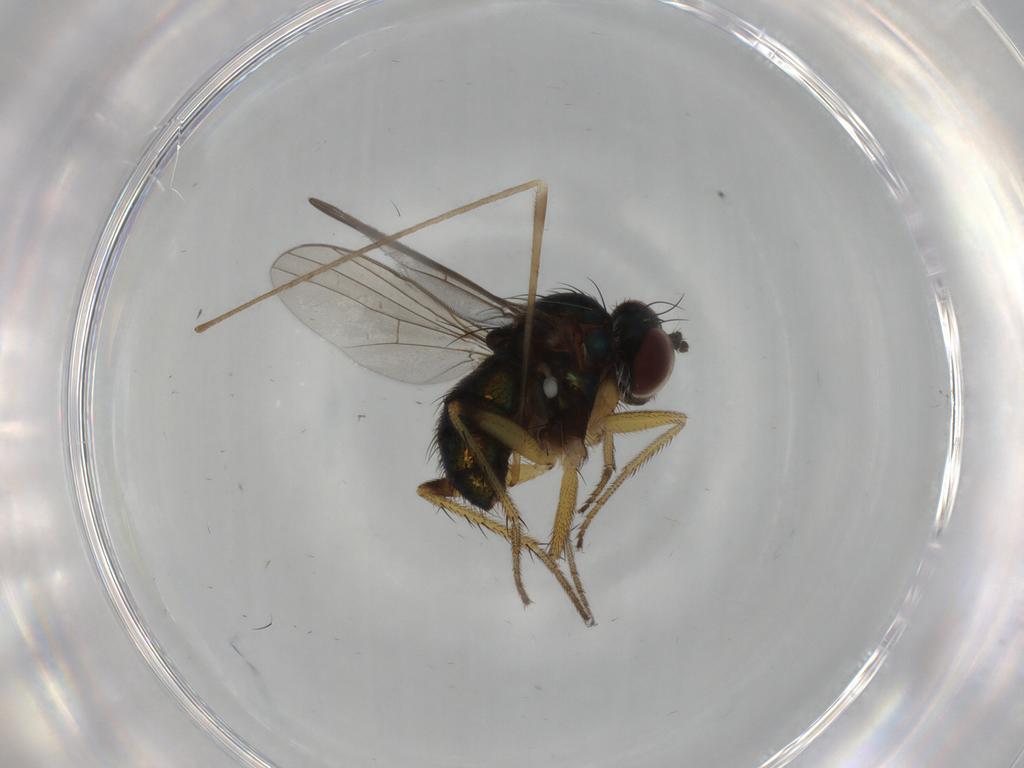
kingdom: Animalia
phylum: Arthropoda
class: Insecta
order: Diptera
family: Dolichopodidae
